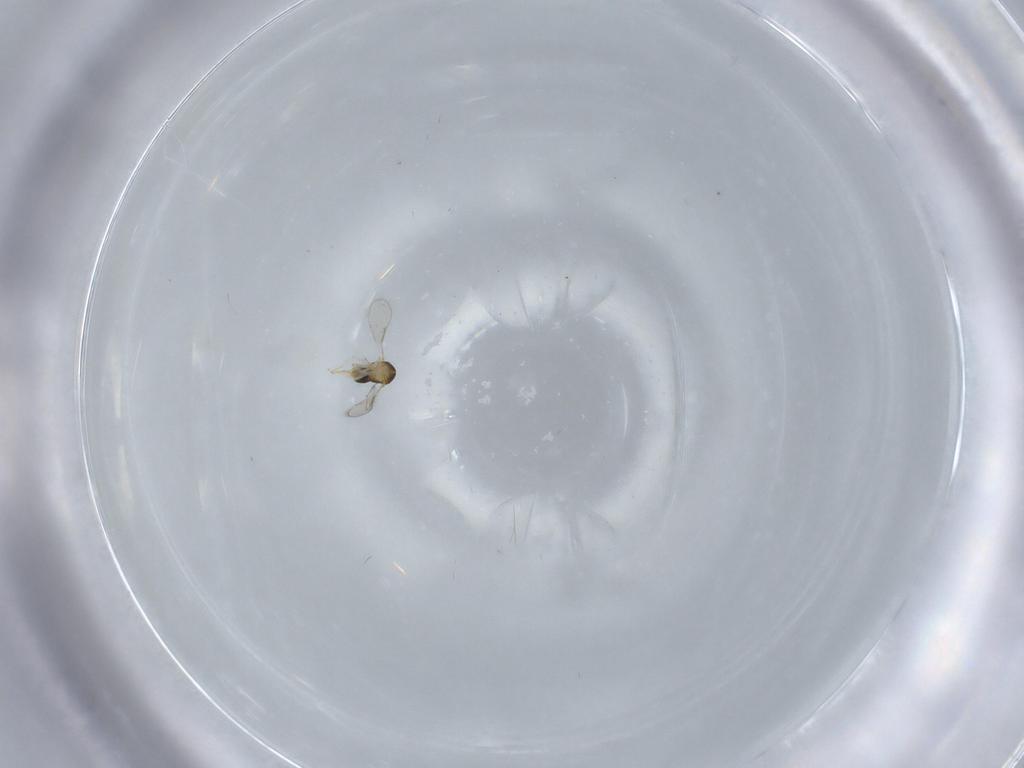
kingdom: Animalia
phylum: Arthropoda
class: Insecta
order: Hymenoptera
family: Aphelinidae
